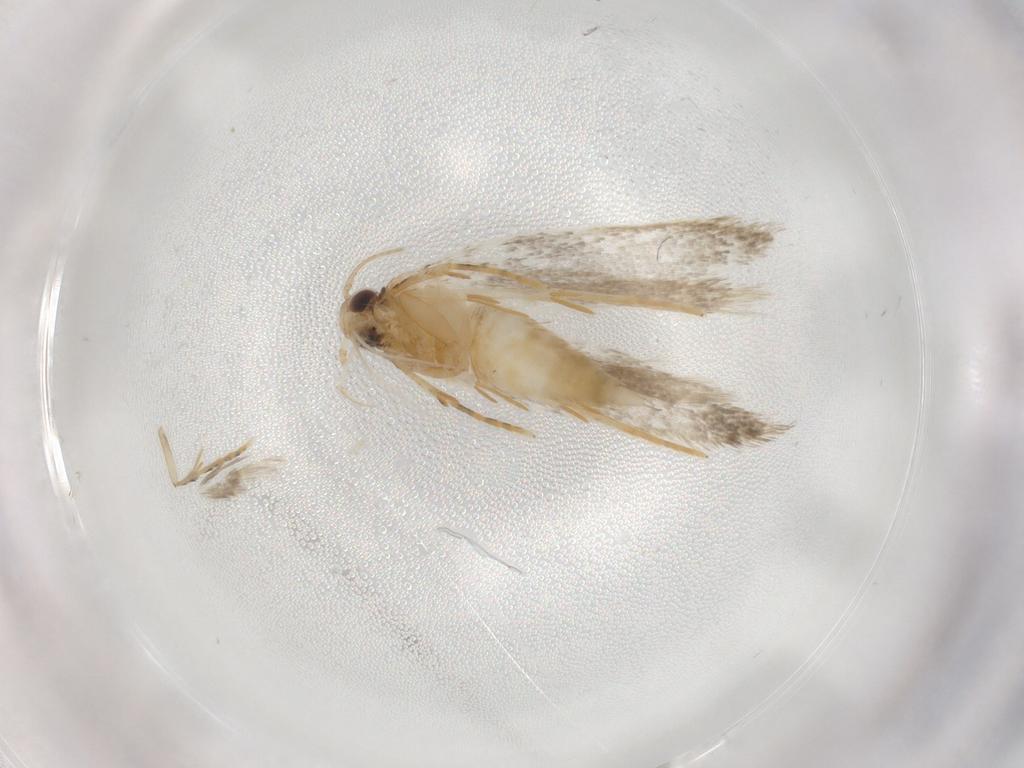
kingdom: Animalia
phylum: Arthropoda
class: Insecta
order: Lepidoptera
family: Autostichidae
